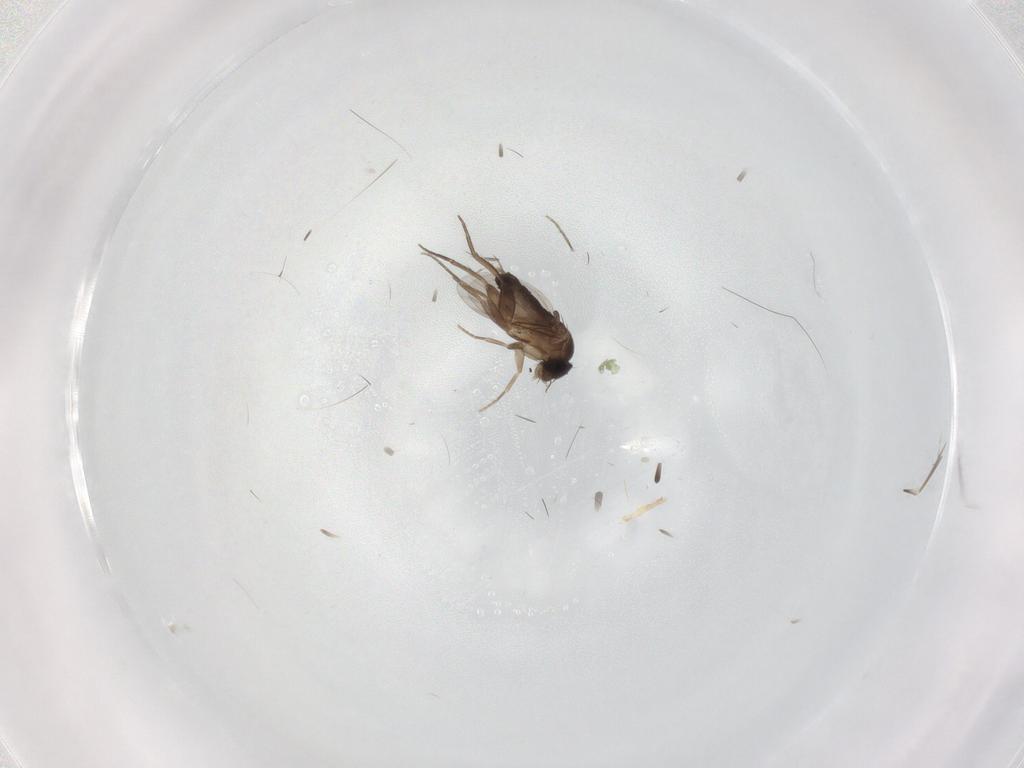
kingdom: Animalia
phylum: Arthropoda
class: Insecta
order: Diptera
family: Phoridae
